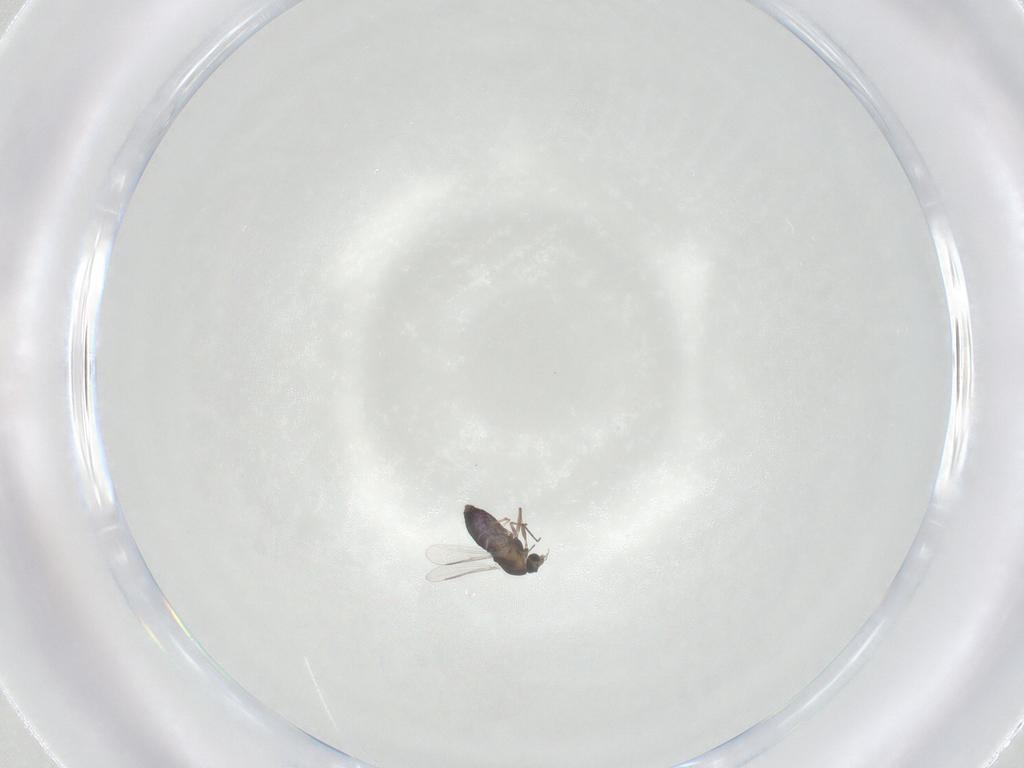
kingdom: Animalia
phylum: Arthropoda
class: Insecta
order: Diptera
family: Chironomidae
